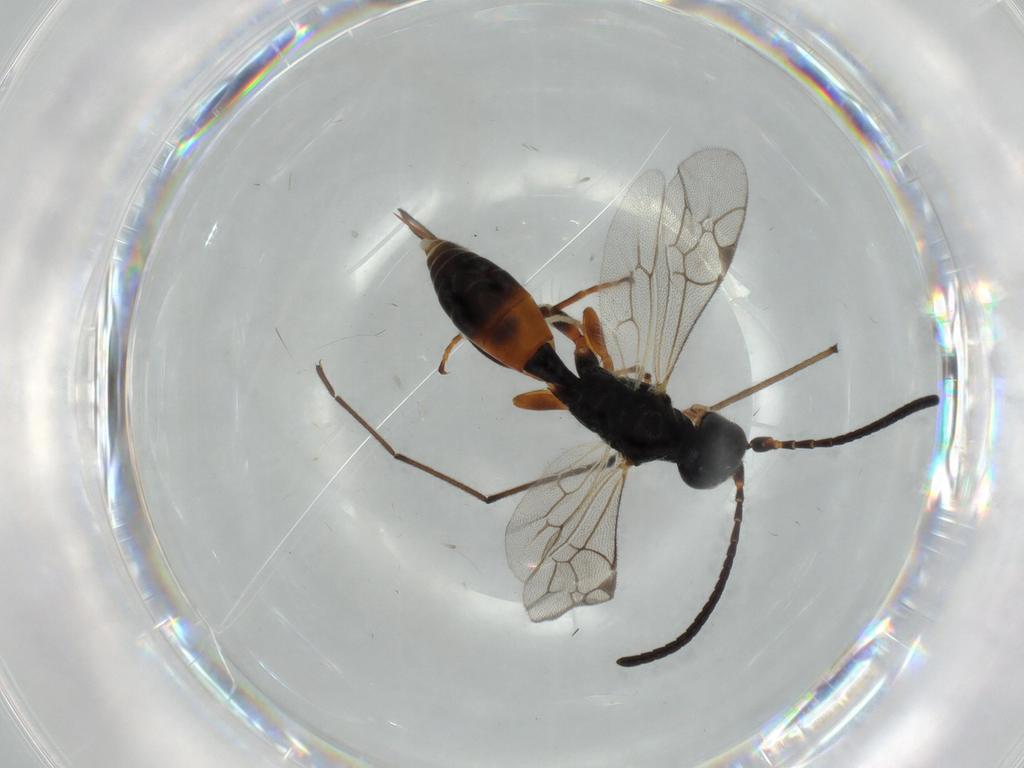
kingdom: Animalia
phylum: Arthropoda
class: Insecta
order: Hymenoptera
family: Ichneumonidae
